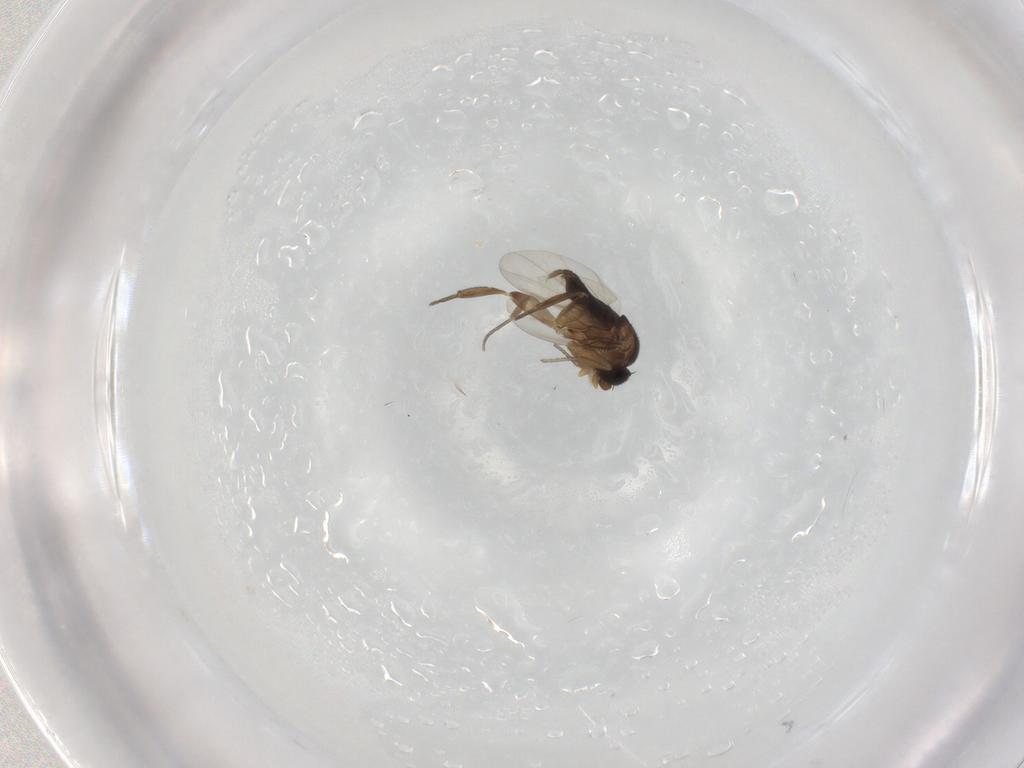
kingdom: Animalia
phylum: Arthropoda
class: Insecta
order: Diptera
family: Phoridae
